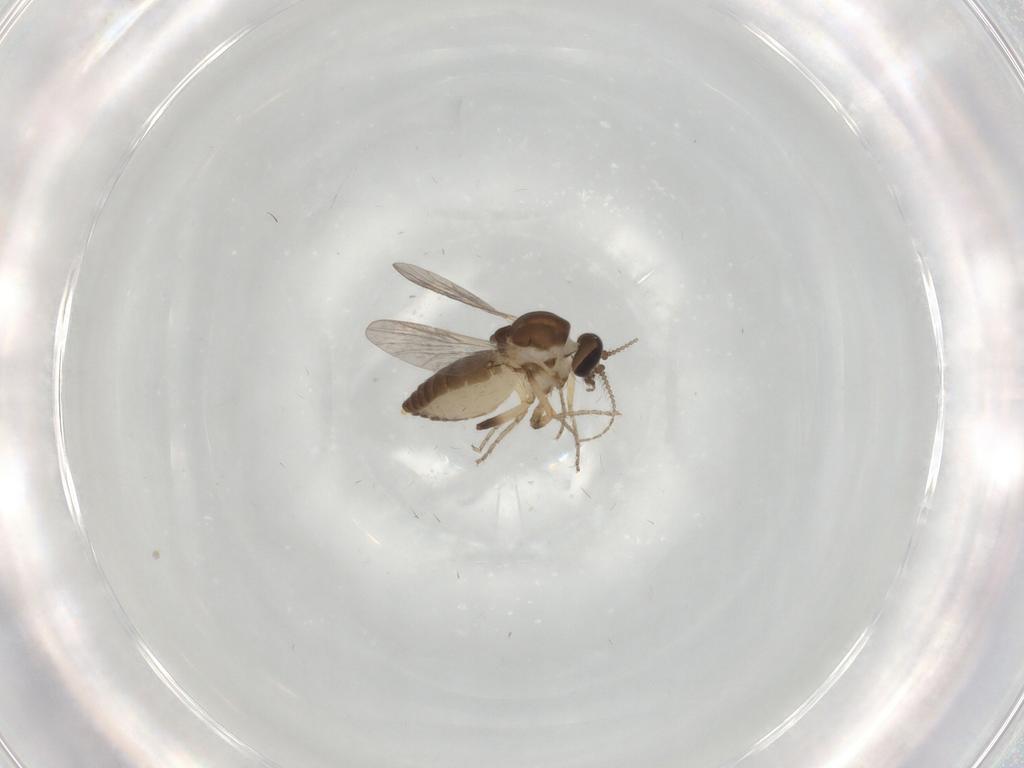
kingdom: Animalia
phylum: Arthropoda
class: Insecta
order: Diptera
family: Ceratopogonidae
